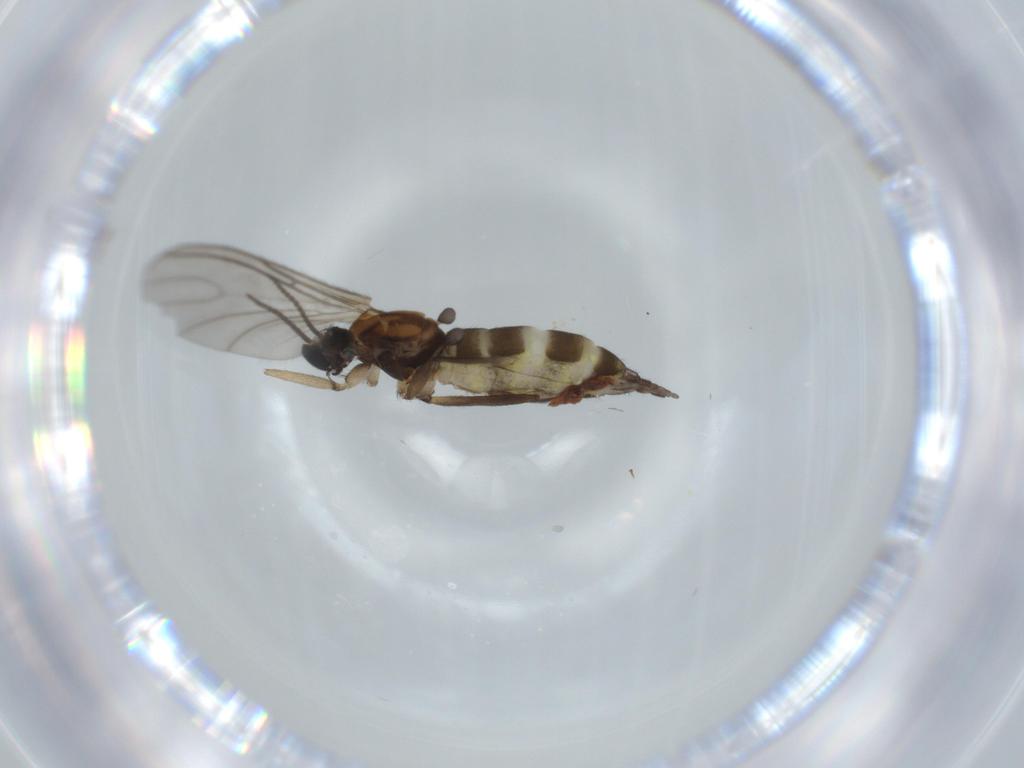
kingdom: Animalia
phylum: Arthropoda
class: Insecta
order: Diptera
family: Sciaridae
